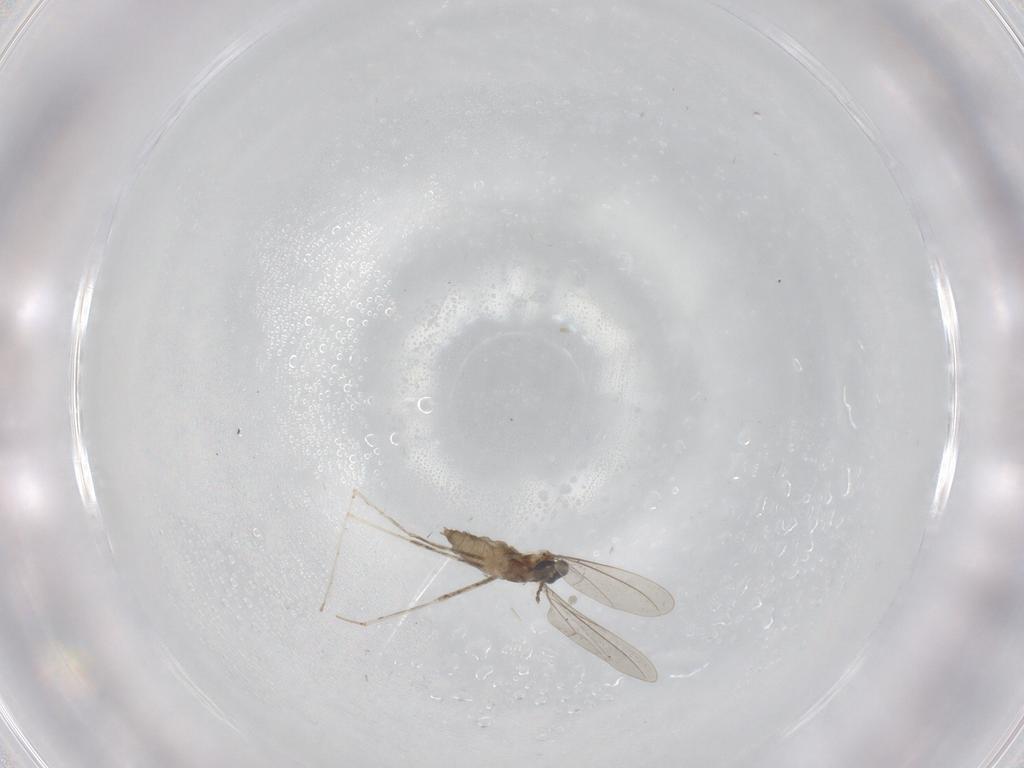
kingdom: Animalia
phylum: Arthropoda
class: Insecta
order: Diptera
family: Cecidomyiidae
